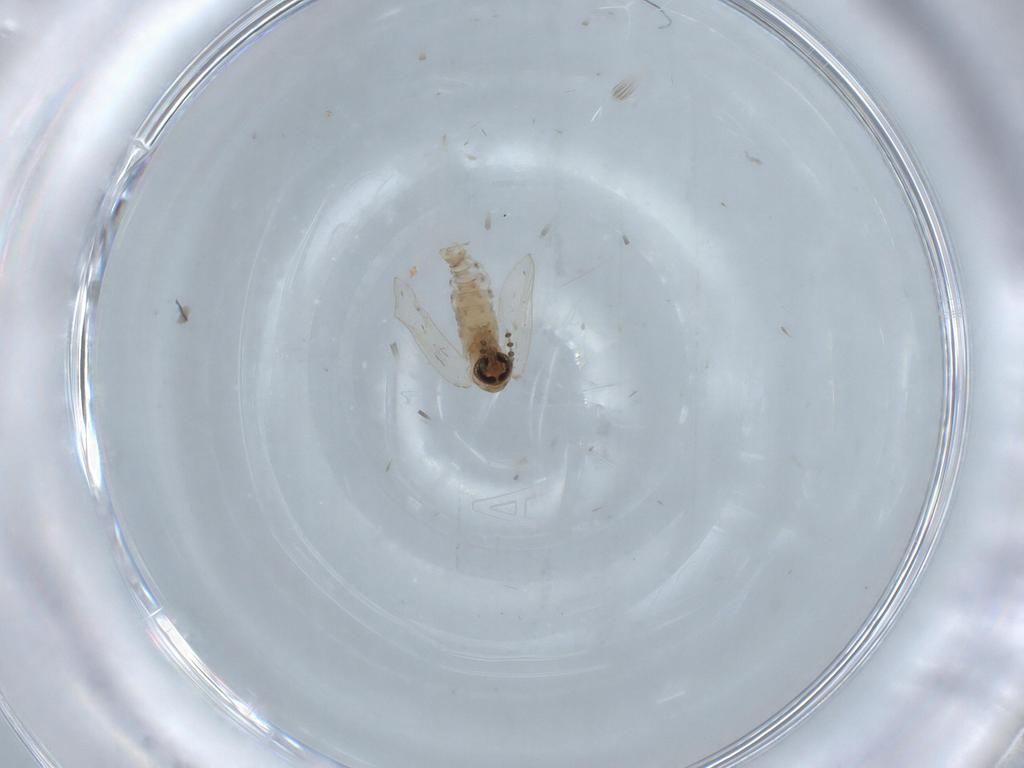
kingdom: Animalia
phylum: Arthropoda
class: Insecta
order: Diptera
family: Psychodidae
